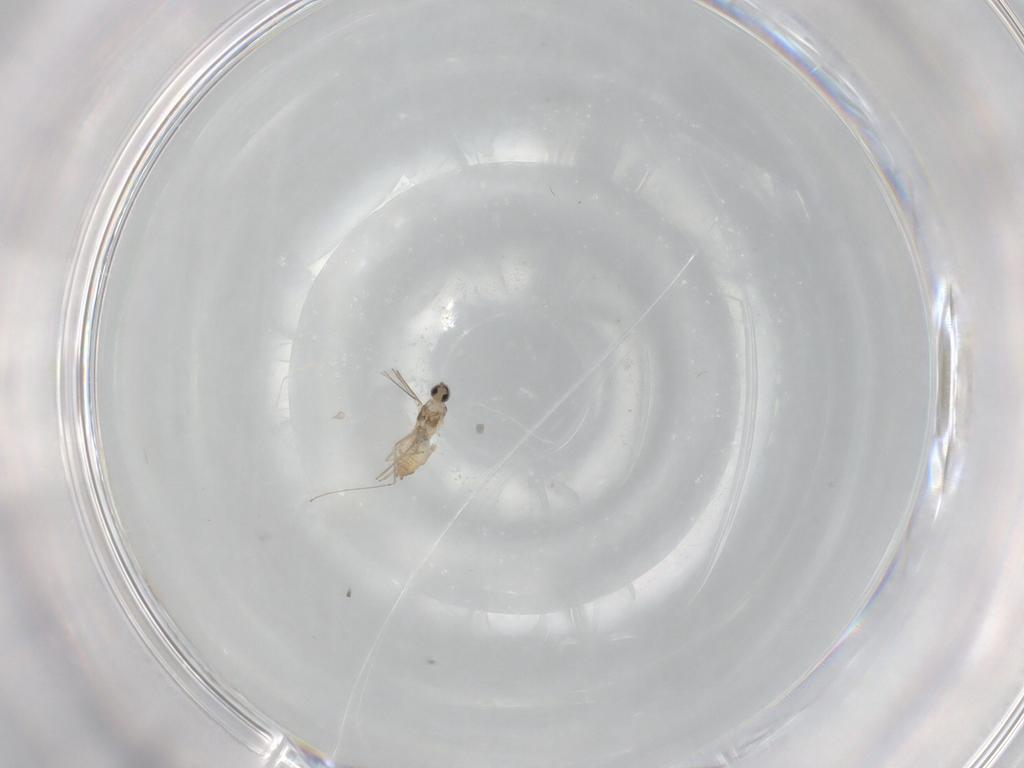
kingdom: Animalia
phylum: Arthropoda
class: Insecta
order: Diptera
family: Cecidomyiidae
